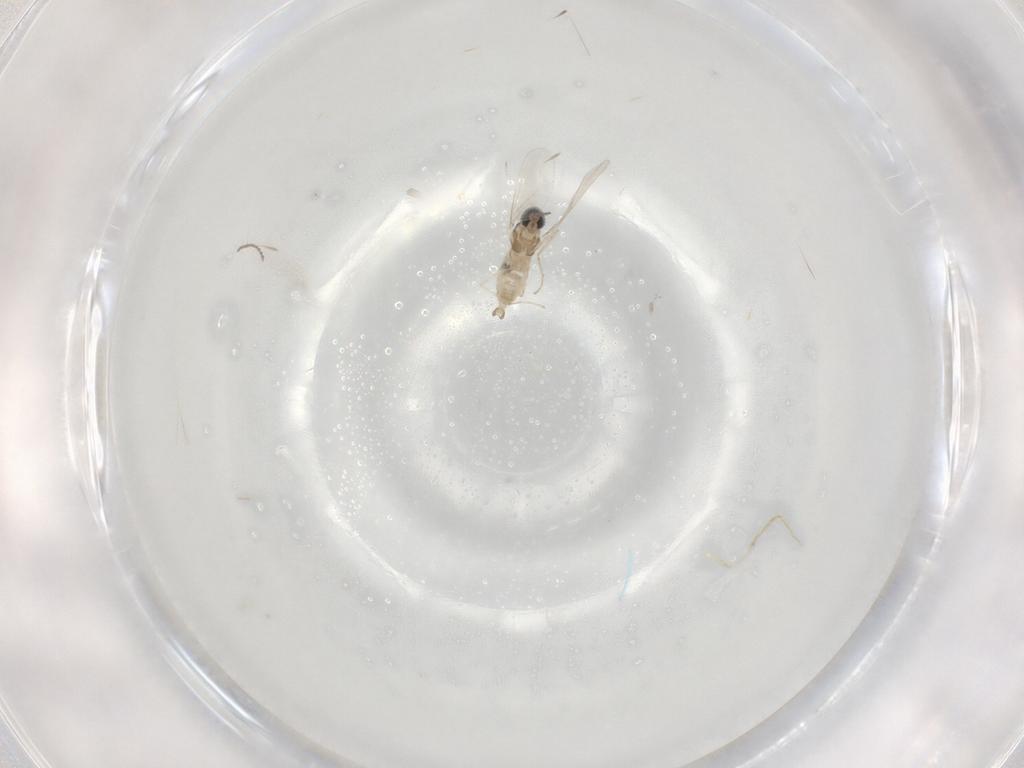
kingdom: Animalia
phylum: Arthropoda
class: Insecta
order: Diptera
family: Cecidomyiidae
